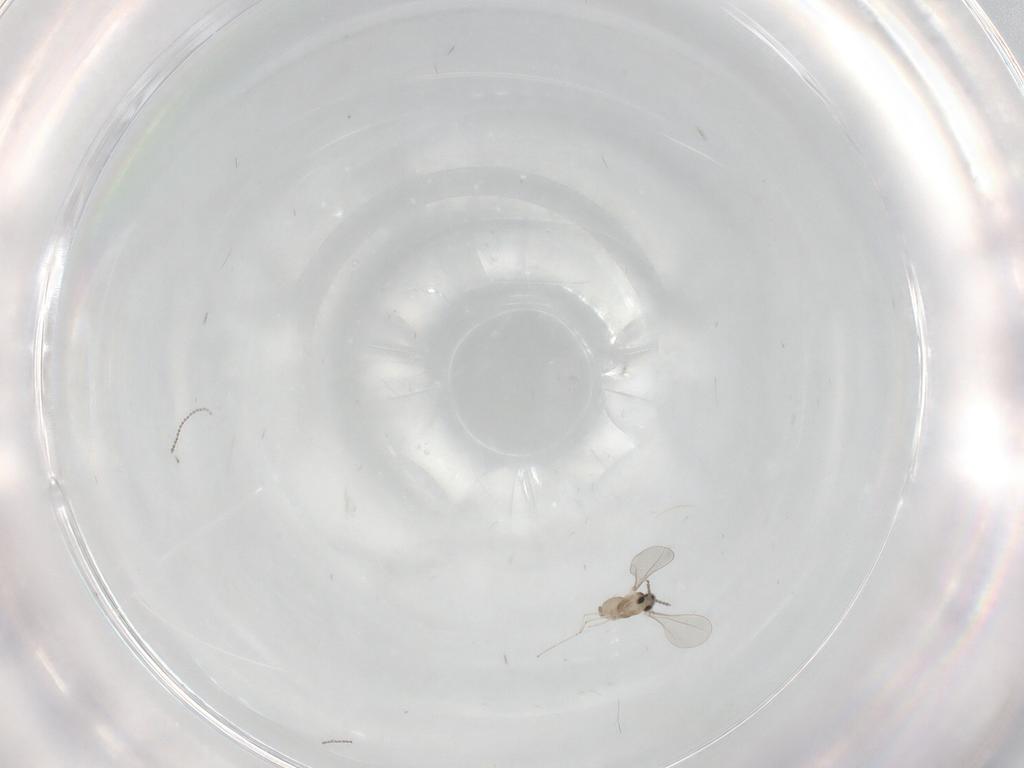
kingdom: Animalia
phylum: Arthropoda
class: Insecta
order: Diptera
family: Cecidomyiidae
